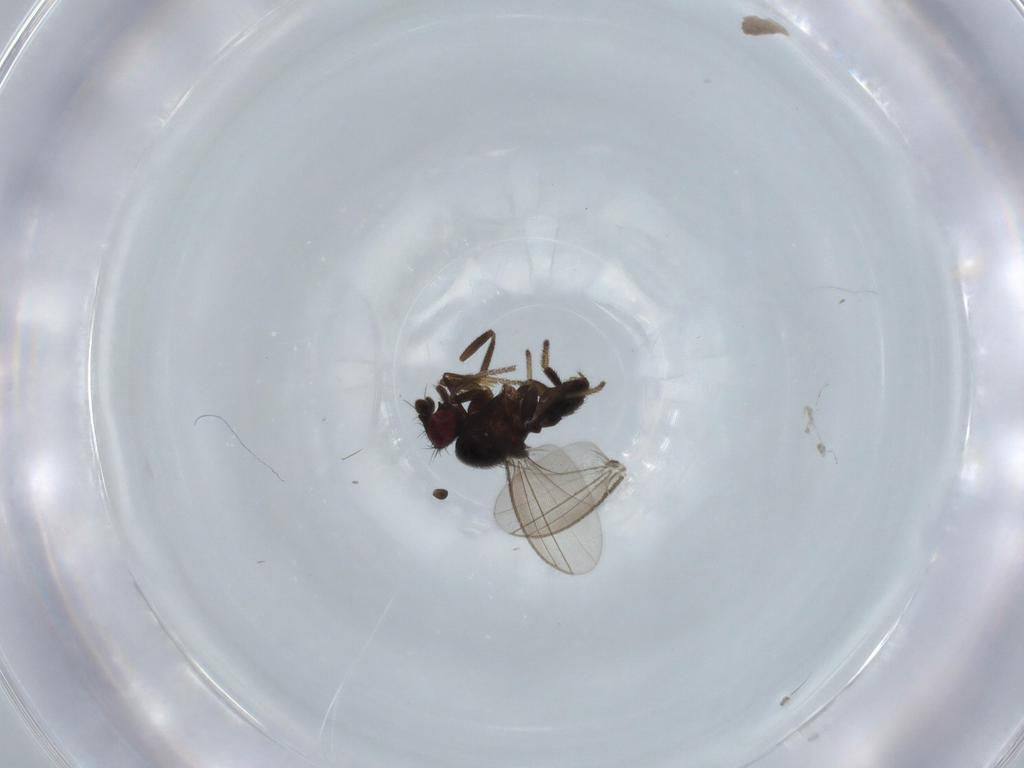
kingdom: Animalia
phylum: Arthropoda
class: Insecta
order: Diptera
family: Milichiidae
